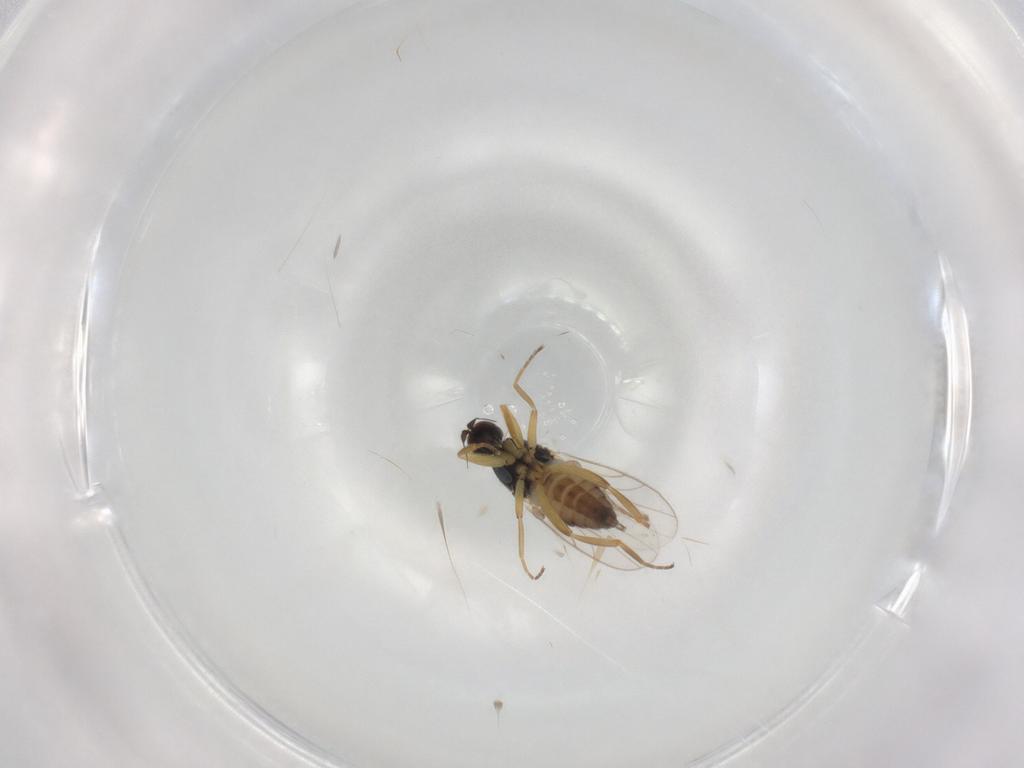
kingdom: Animalia
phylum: Arthropoda
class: Insecta
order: Diptera
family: Hybotidae
